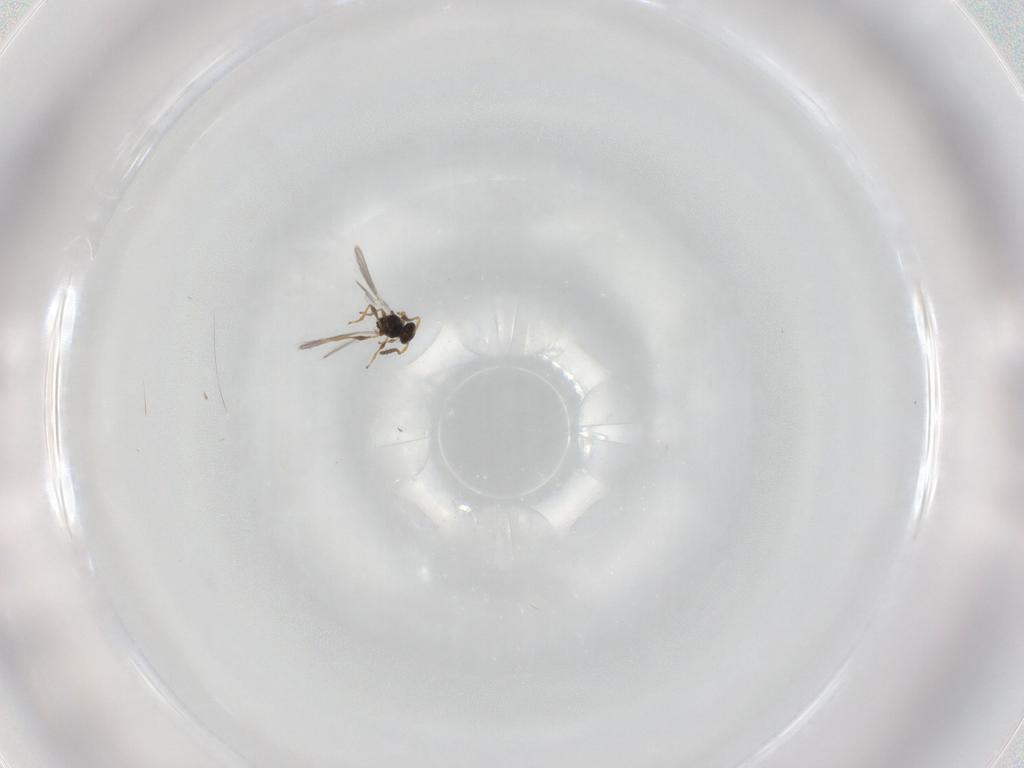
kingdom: Animalia
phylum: Arthropoda
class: Insecta
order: Hymenoptera
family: Platygastridae
